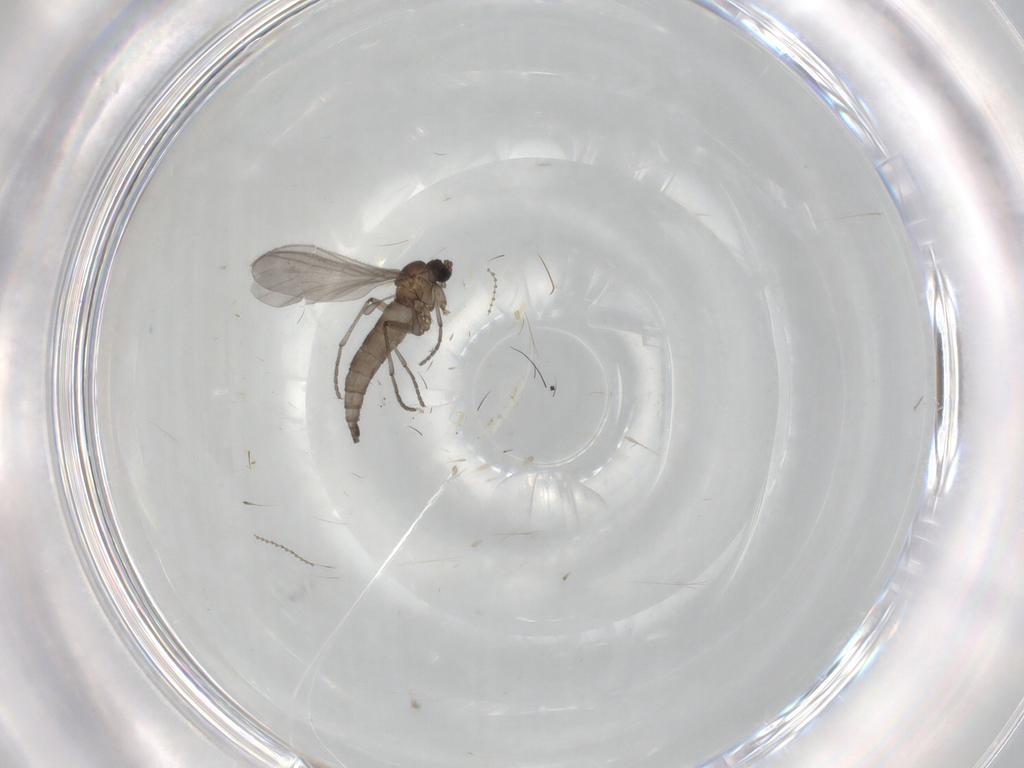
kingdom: Animalia
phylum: Arthropoda
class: Insecta
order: Diptera
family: Sciaridae
